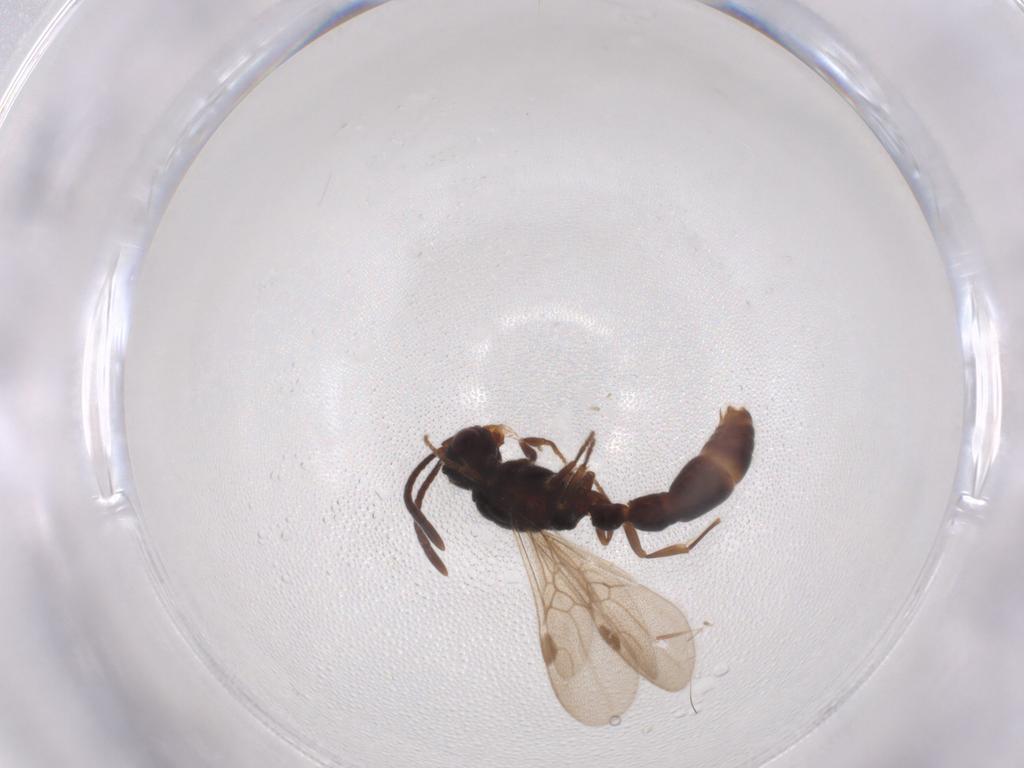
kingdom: Animalia
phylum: Arthropoda
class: Insecta
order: Hymenoptera
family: Formicidae
